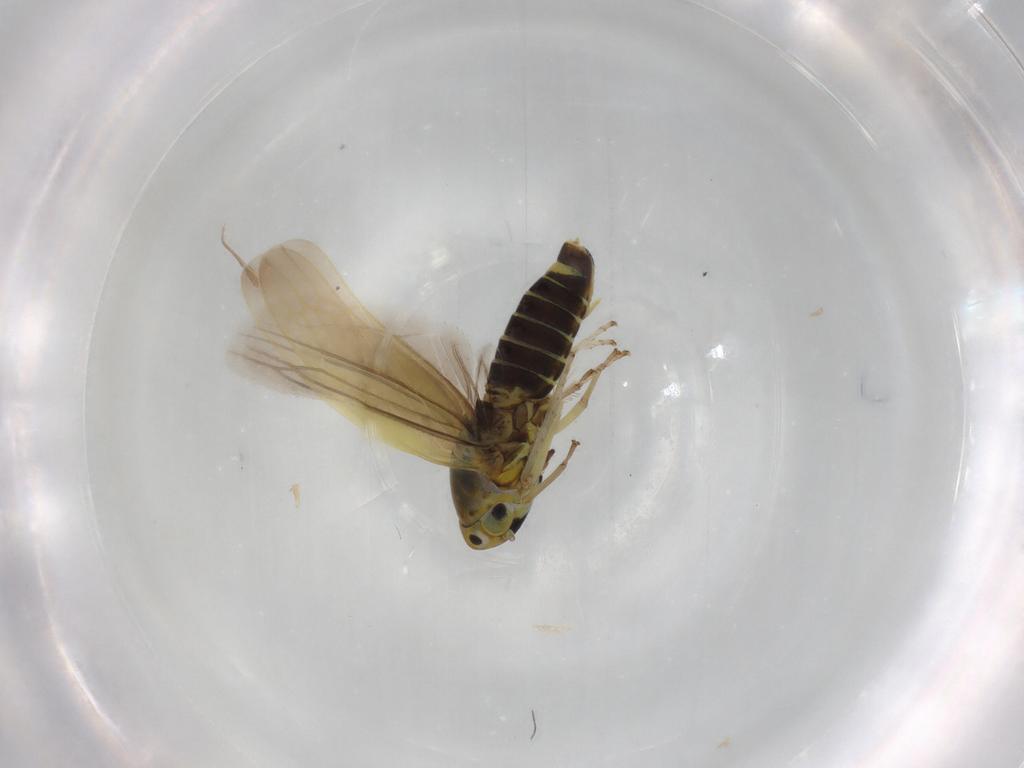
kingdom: Animalia
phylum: Arthropoda
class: Insecta
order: Hemiptera
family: Cicadellidae
